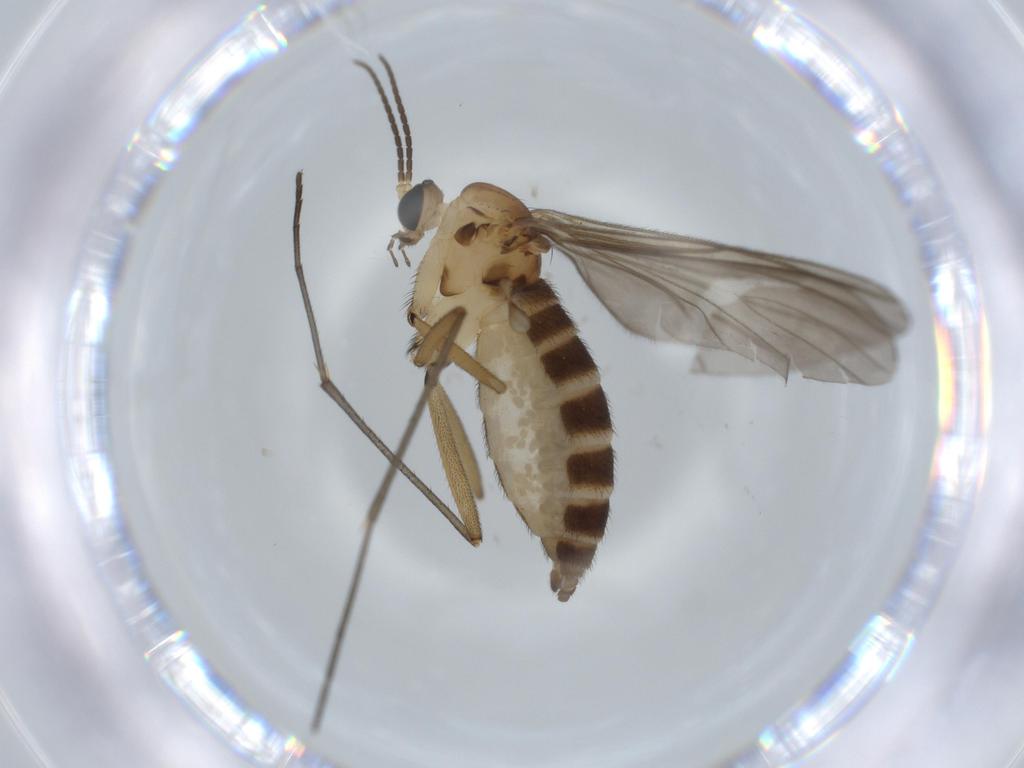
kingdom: Animalia
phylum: Arthropoda
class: Insecta
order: Diptera
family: Sciaridae
